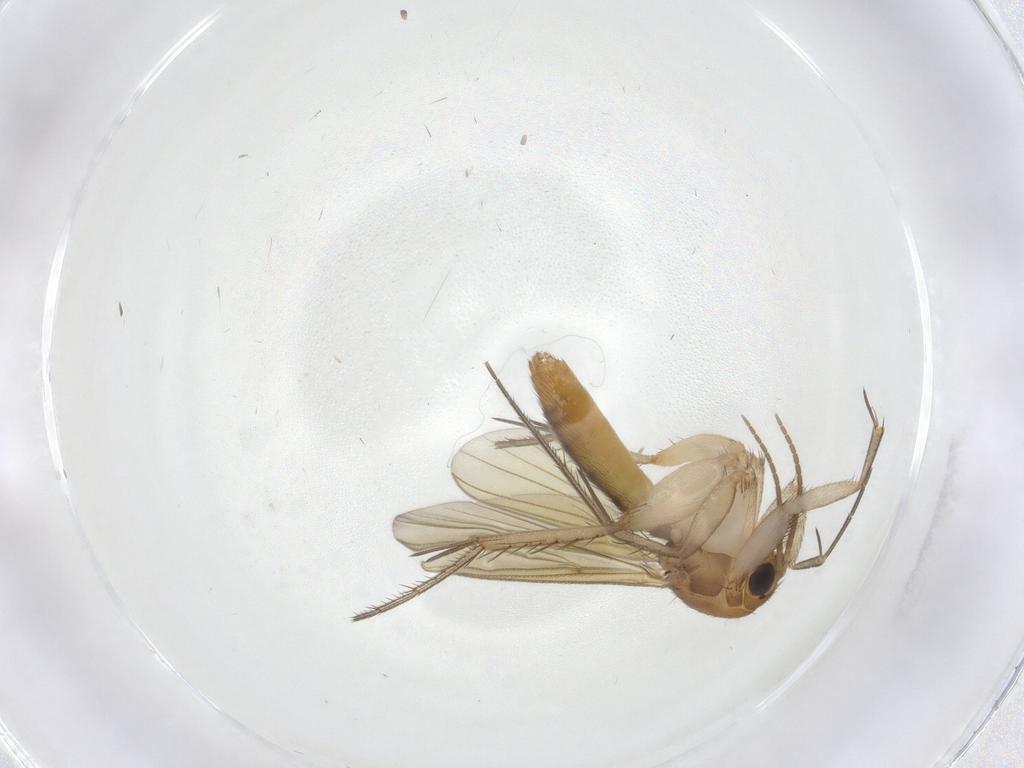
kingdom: Animalia
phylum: Arthropoda
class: Insecta
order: Diptera
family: Mycetophilidae
